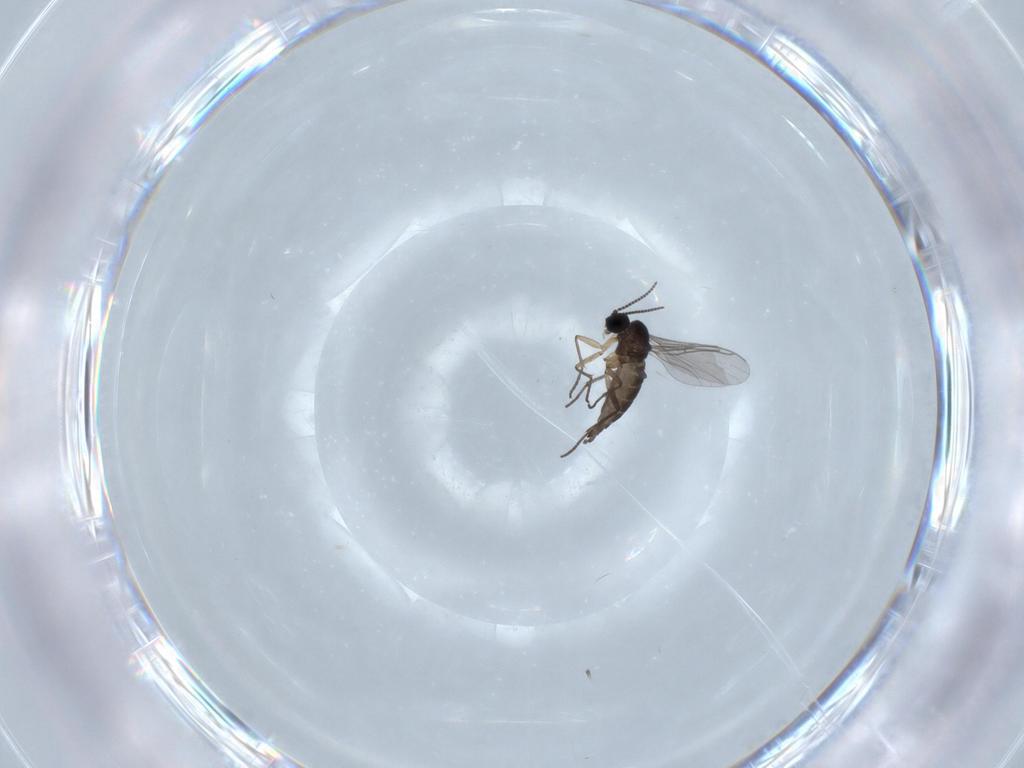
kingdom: Animalia
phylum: Arthropoda
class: Insecta
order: Diptera
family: Sciaridae
